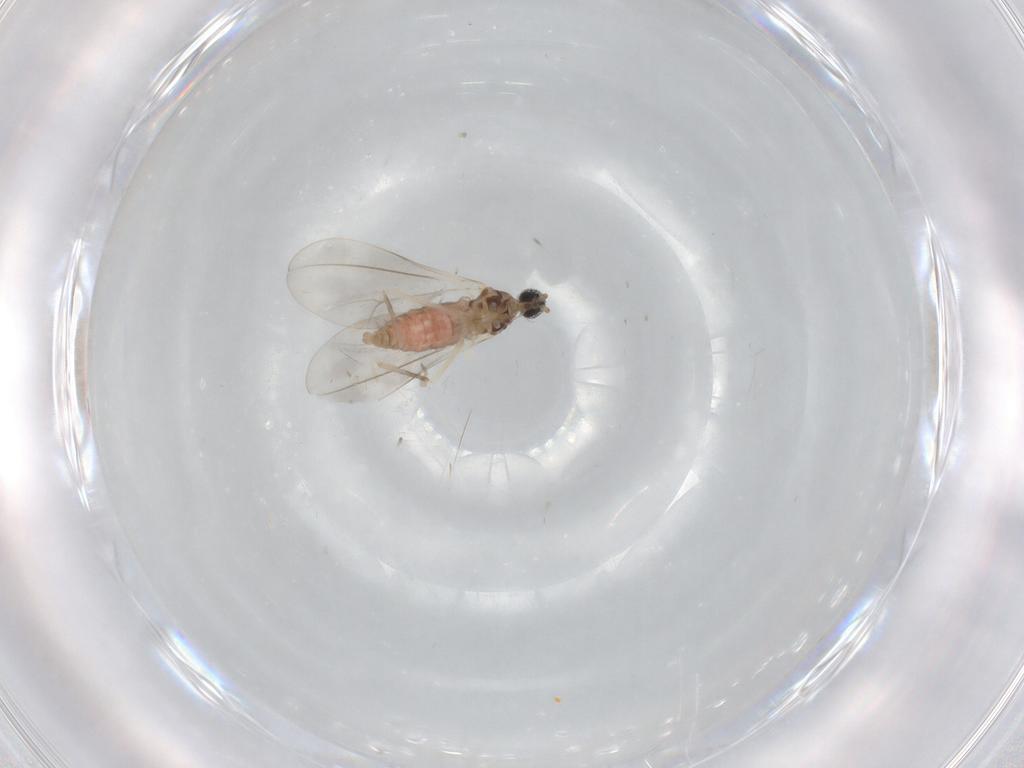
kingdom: Animalia
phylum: Arthropoda
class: Insecta
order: Diptera
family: Cecidomyiidae
